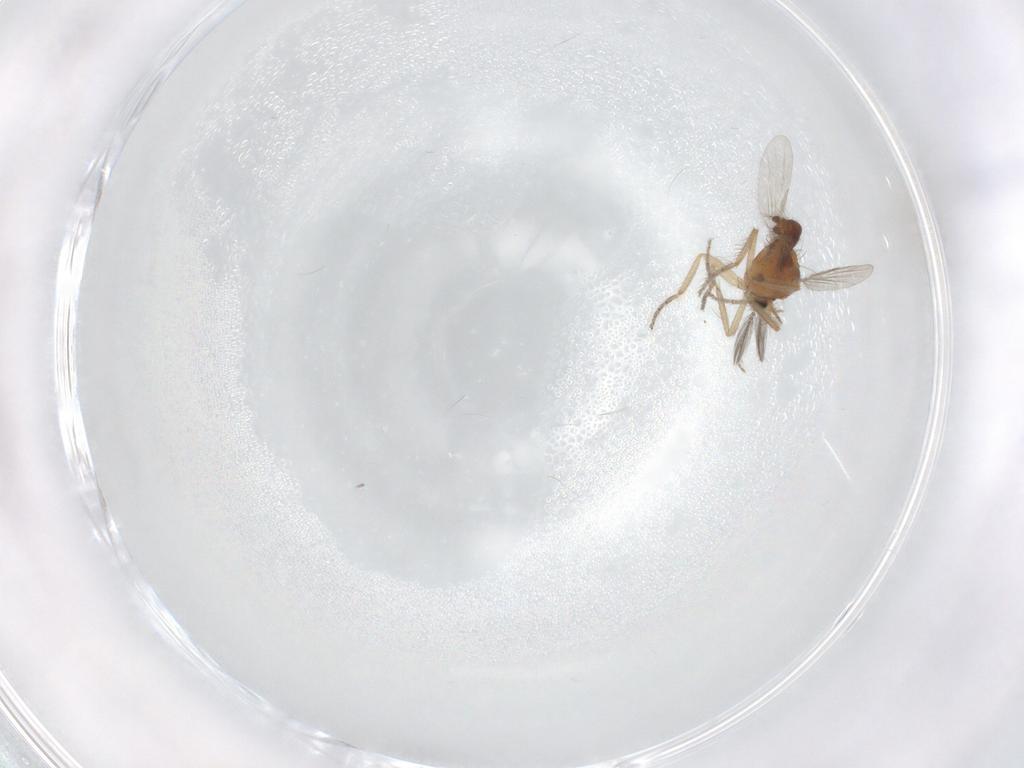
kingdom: Animalia
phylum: Arthropoda
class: Insecta
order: Diptera
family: Ceratopogonidae
